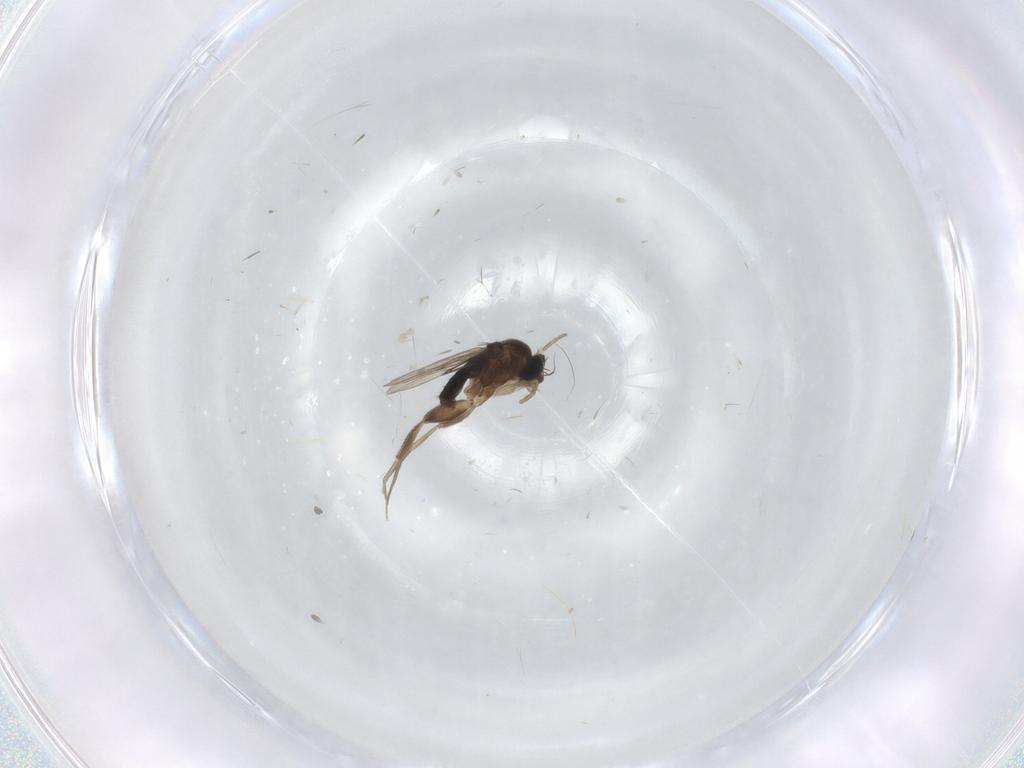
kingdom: Animalia
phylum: Arthropoda
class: Insecta
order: Diptera
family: Phoridae
